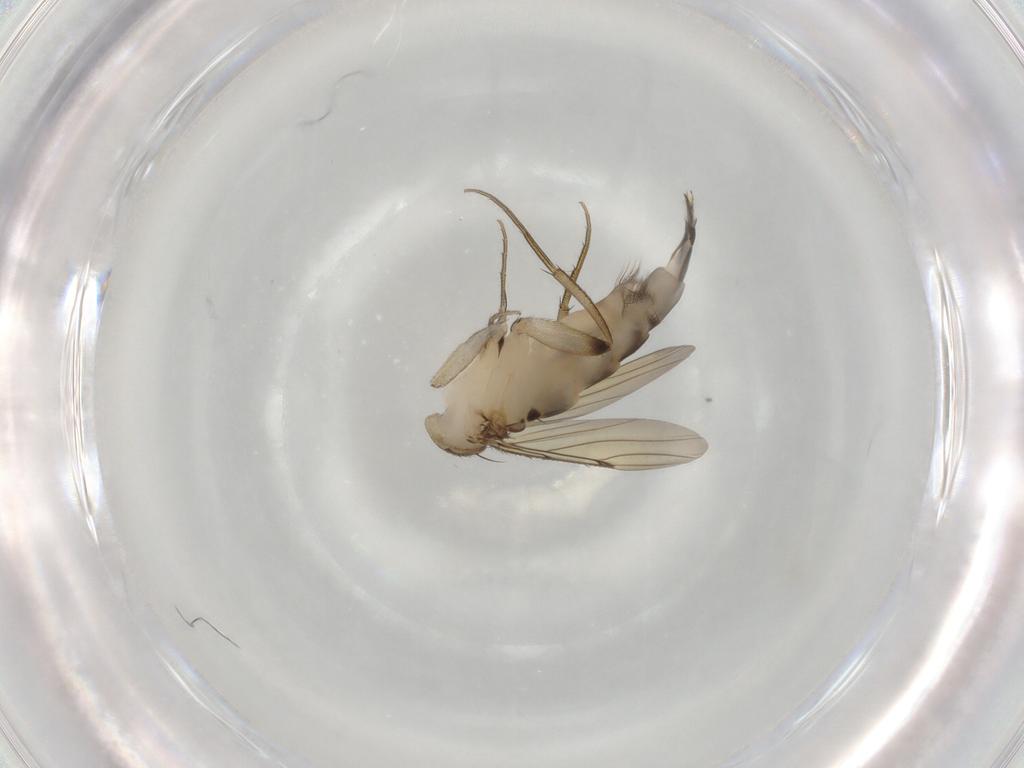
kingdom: Animalia
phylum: Arthropoda
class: Insecta
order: Diptera
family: Phoridae
